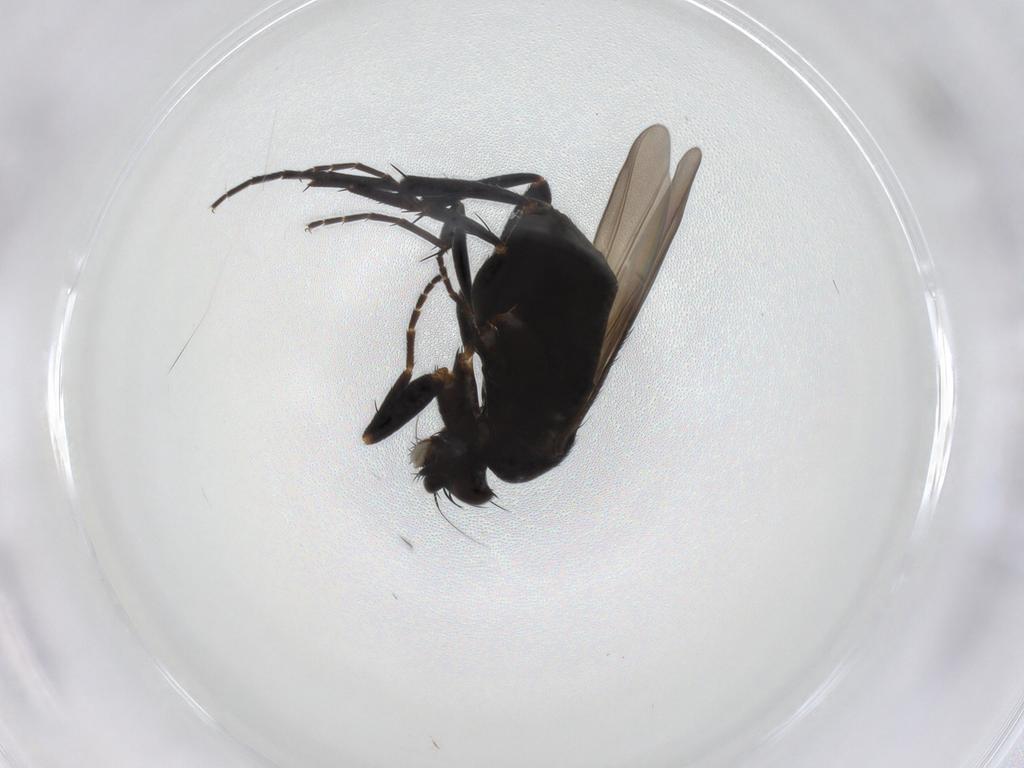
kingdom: Animalia
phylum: Arthropoda
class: Insecta
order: Diptera
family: Phoridae
